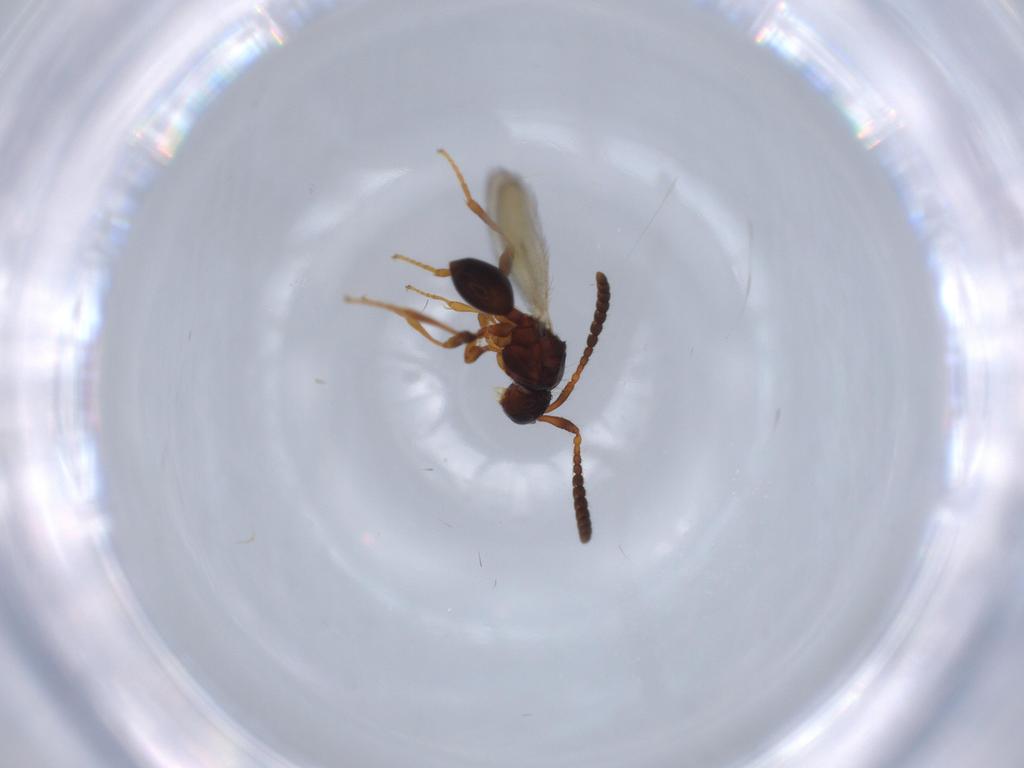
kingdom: Animalia
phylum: Arthropoda
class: Insecta
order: Hymenoptera
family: Diapriidae
